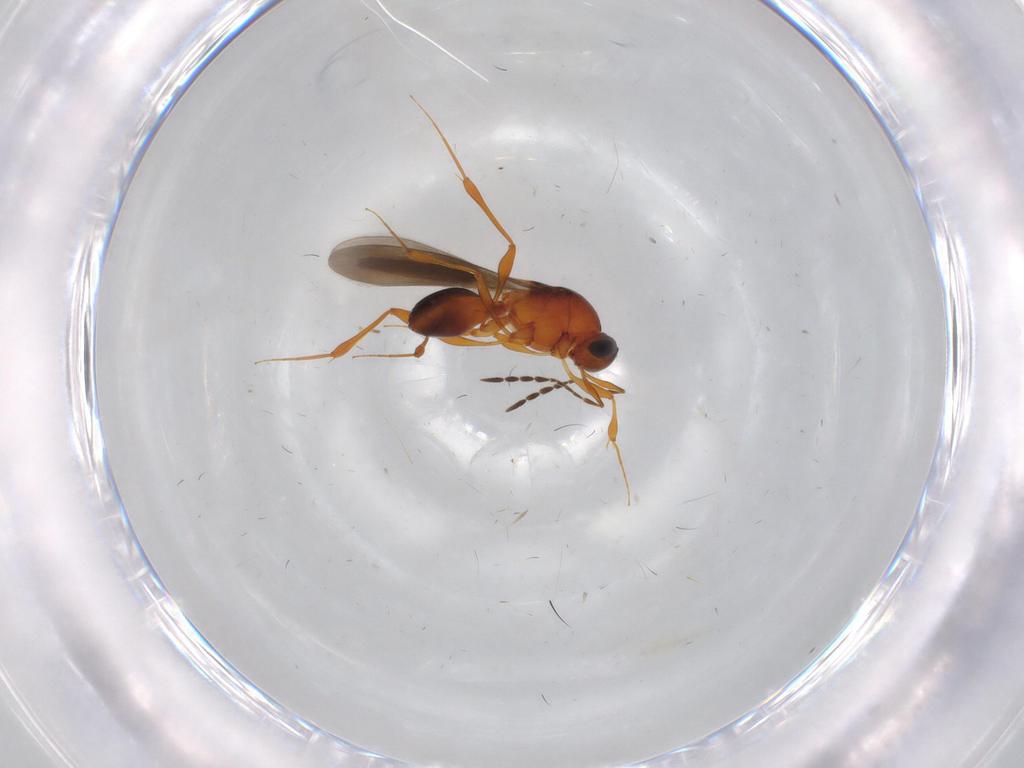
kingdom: Animalia
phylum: Arthropoda
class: Insecta
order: Hymenoptera
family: Platygastridae
